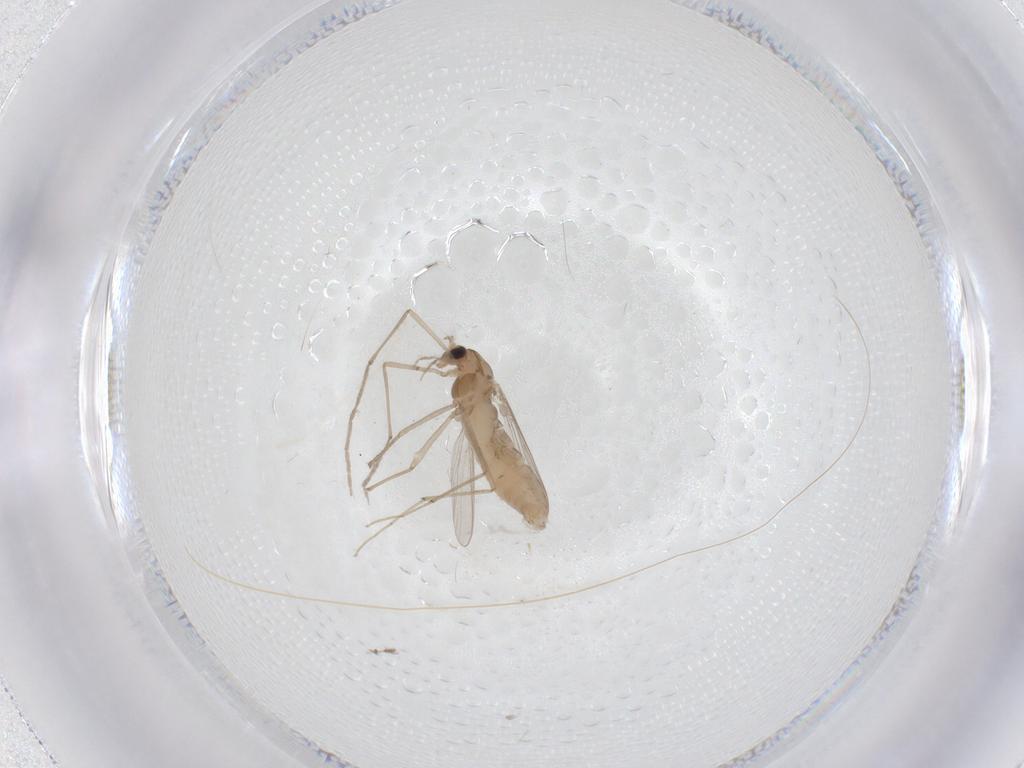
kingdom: Animalia
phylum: Arthropoda
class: Insecta
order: Diptera
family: Chironomidae
